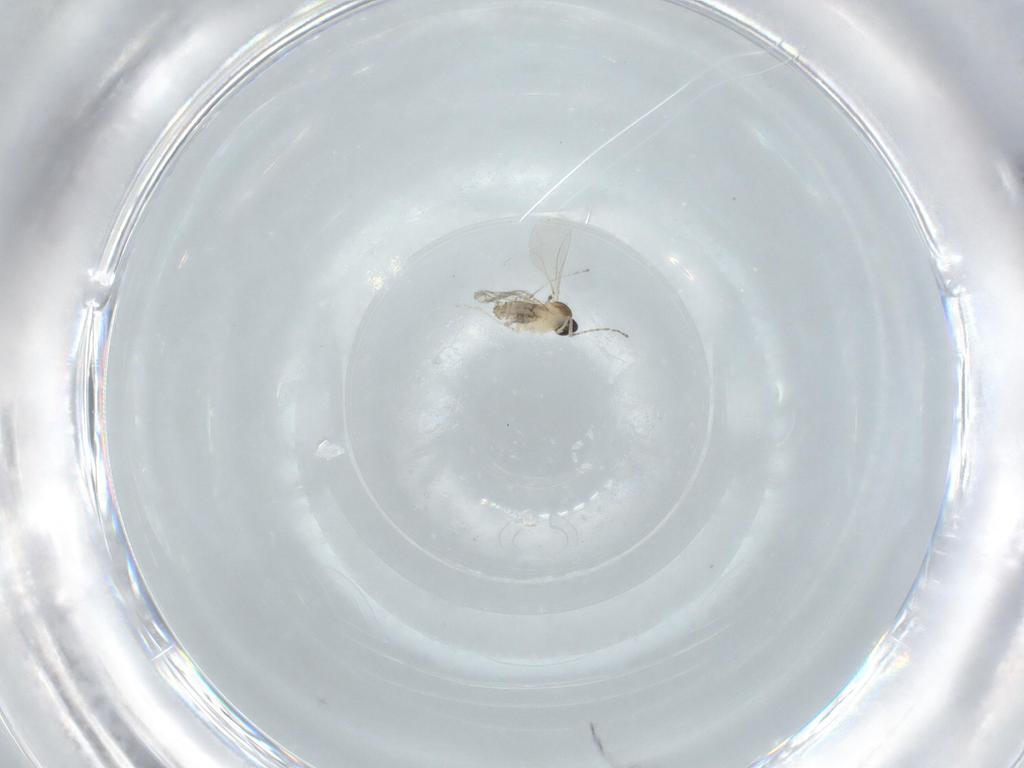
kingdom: Animalia
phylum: Arthropoda
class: Insecta
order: Diptera
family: Cecidomyiidae
